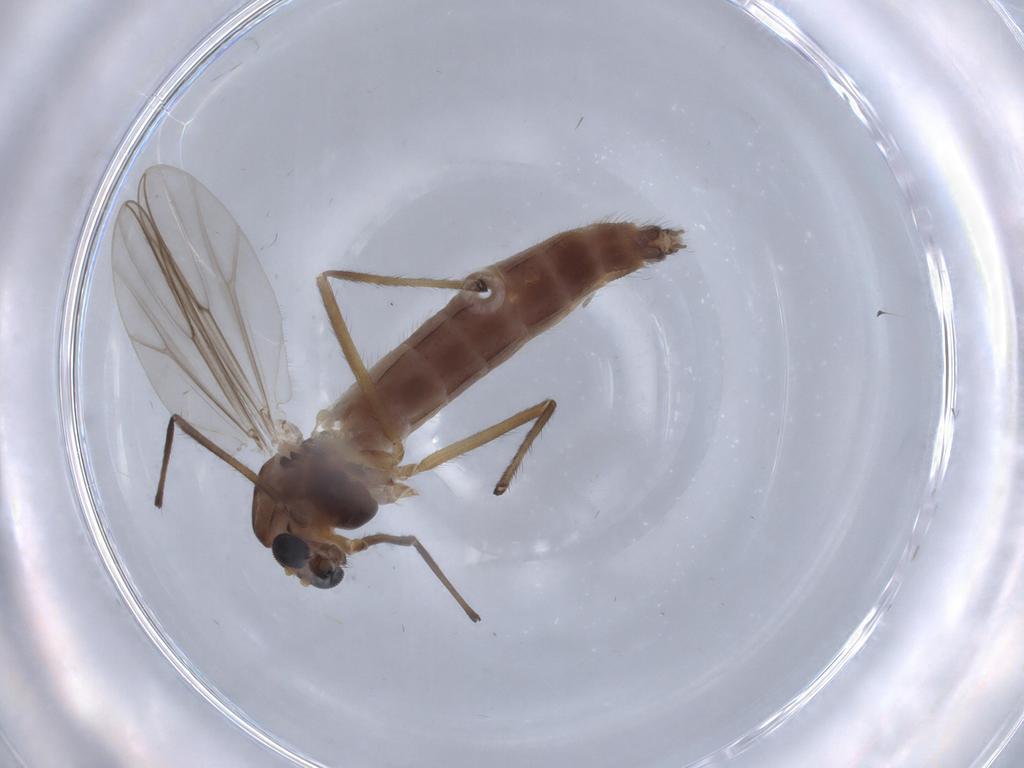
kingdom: Animalia
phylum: Arthropoda
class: Insecta
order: Diptera
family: Chironomidae
